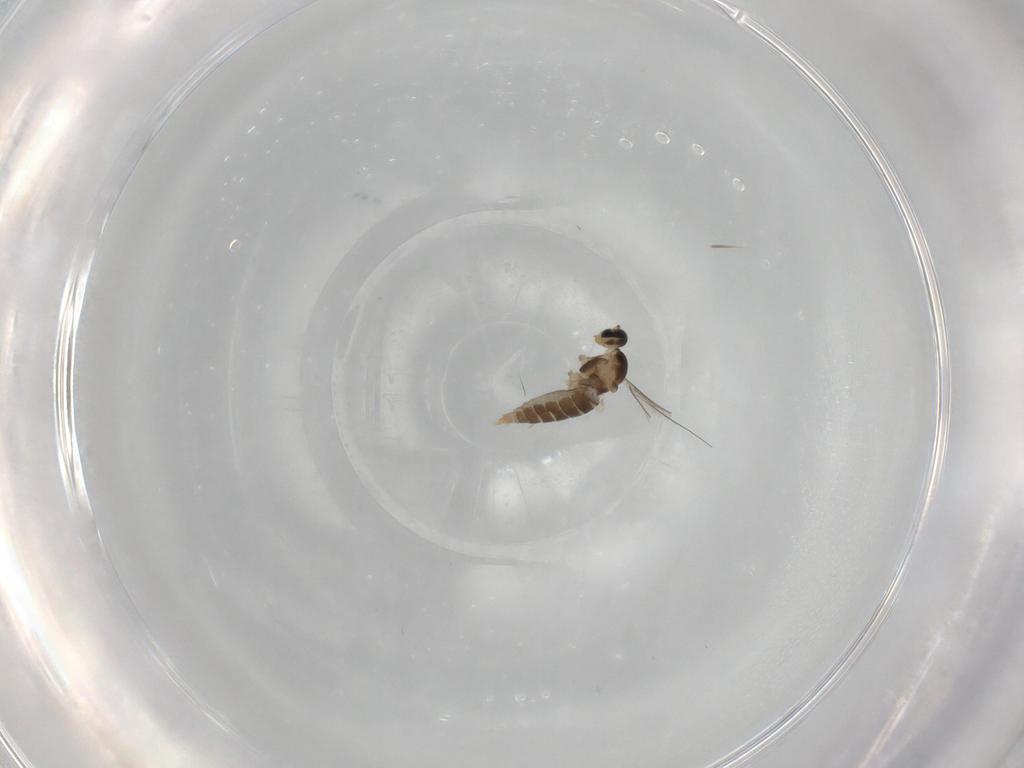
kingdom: Animalia
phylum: Arthropoda
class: Insecta
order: Diptera
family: Cecidomyiidae
